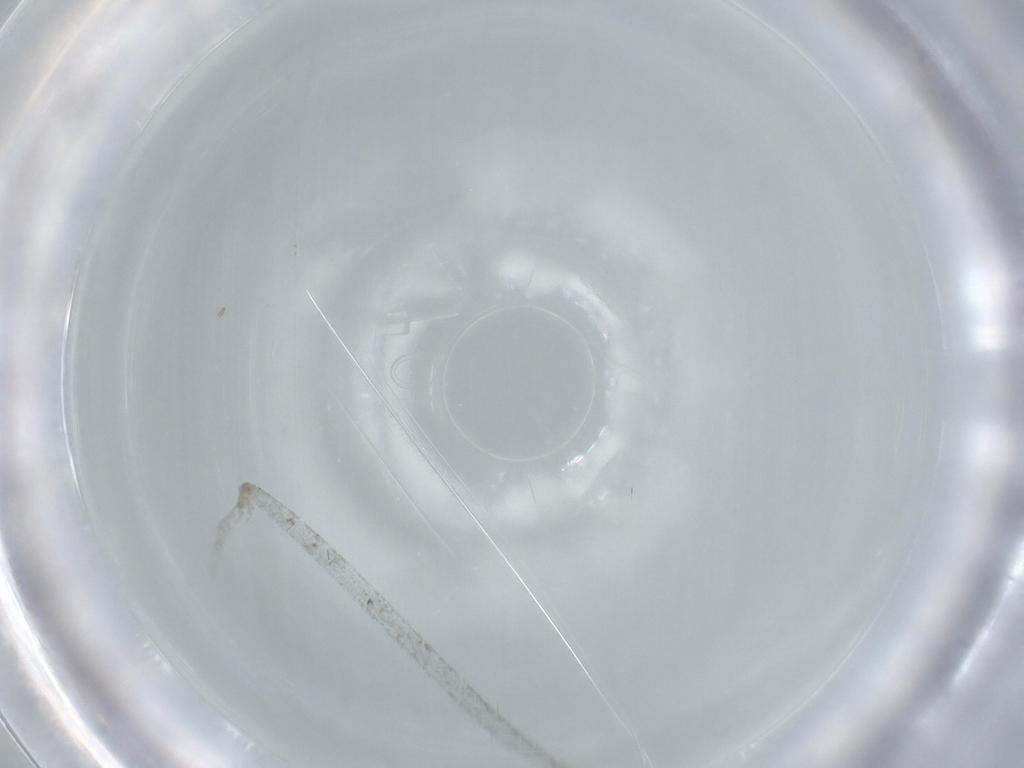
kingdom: Animalia
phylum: Arthropoda
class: Insecta
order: Diptera
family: Sciaridae
